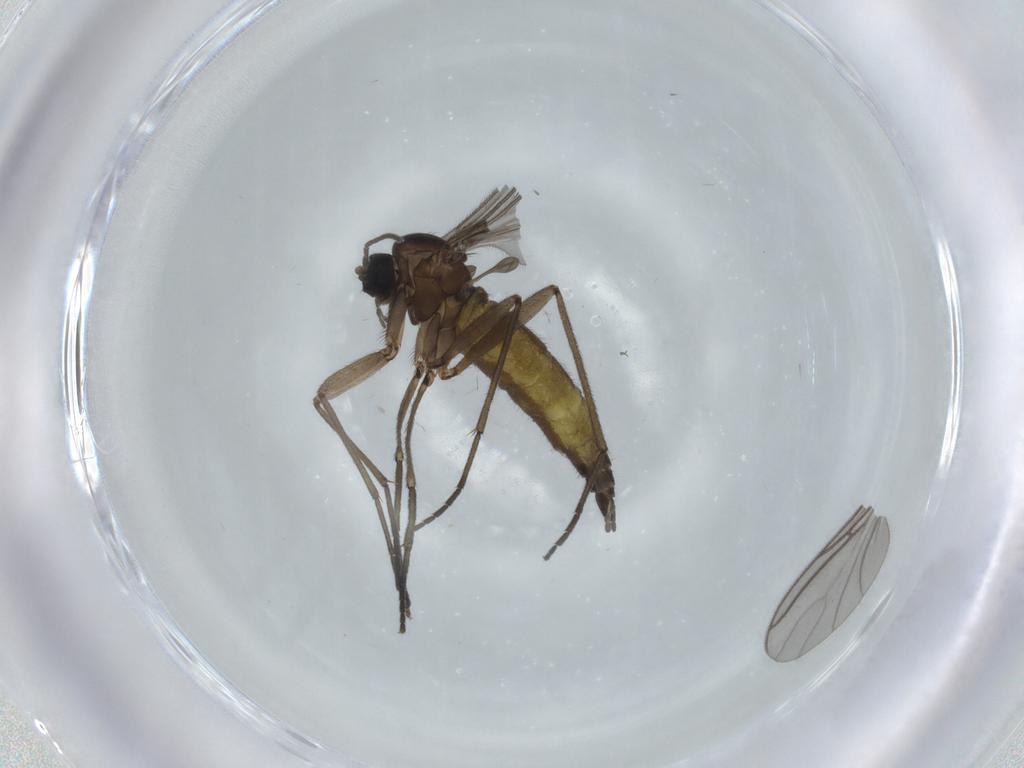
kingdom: Animalia
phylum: Arthropoda
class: Insecta
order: Diptera
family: Sciaridae
